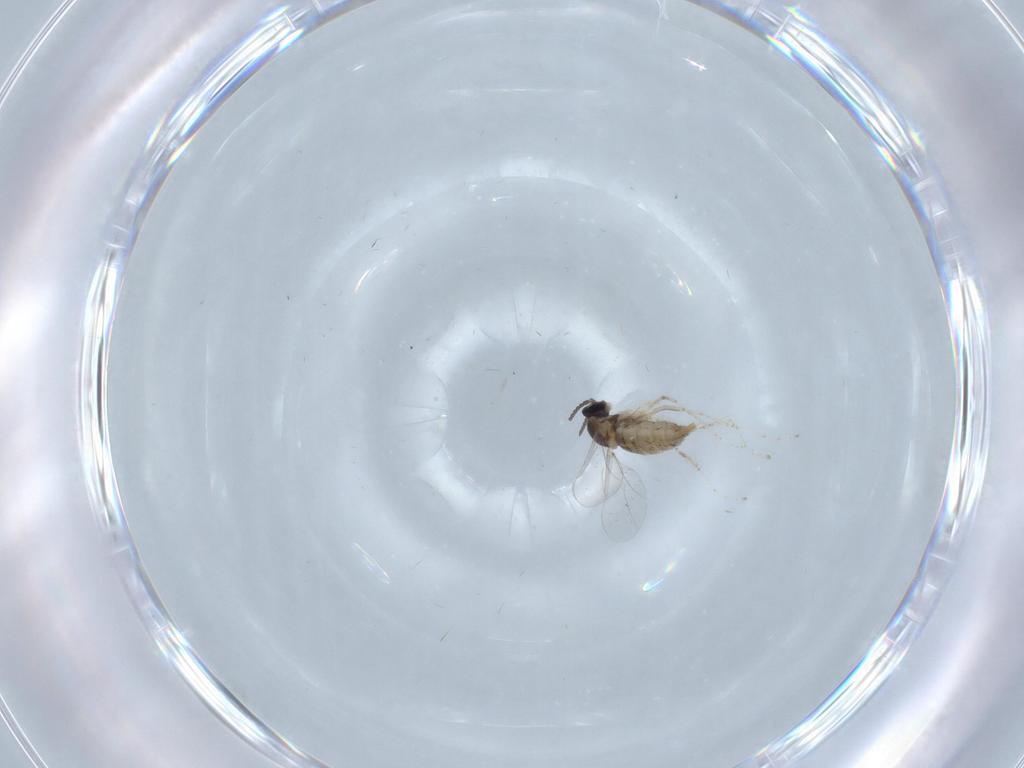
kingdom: Animalia
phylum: Arthropoda
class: Insecta
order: Diptera
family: Cecidomyiidae
